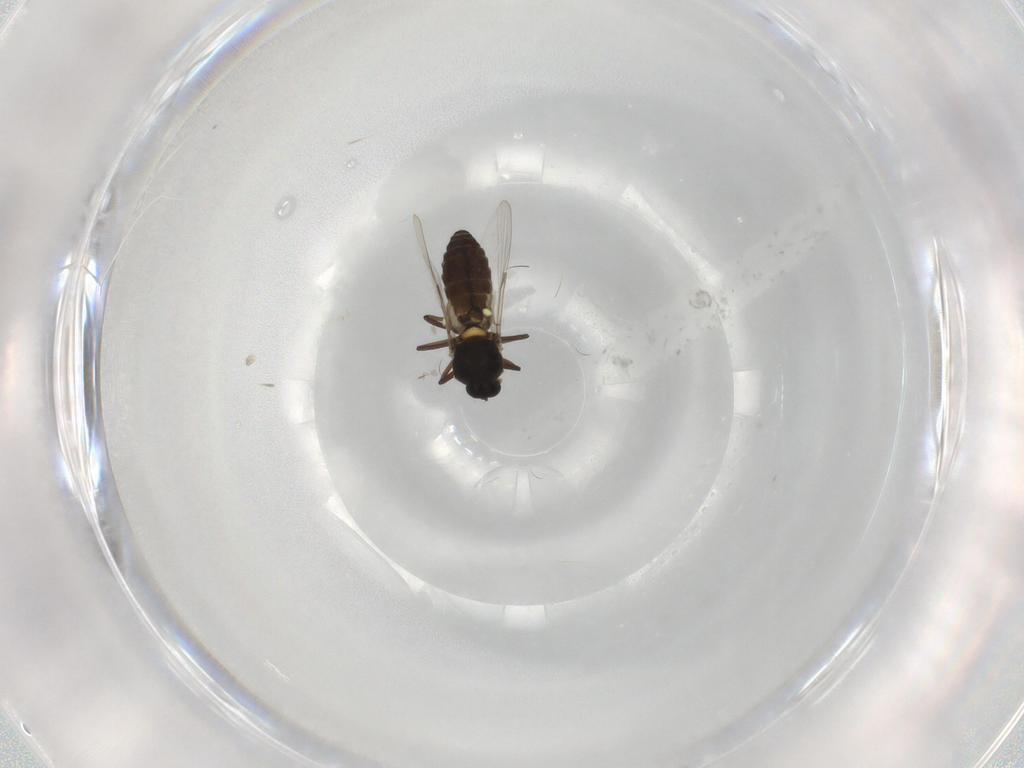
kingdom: Animalia
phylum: Arthropoda
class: Insecta
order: Diptera
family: Ceratopogonidae
